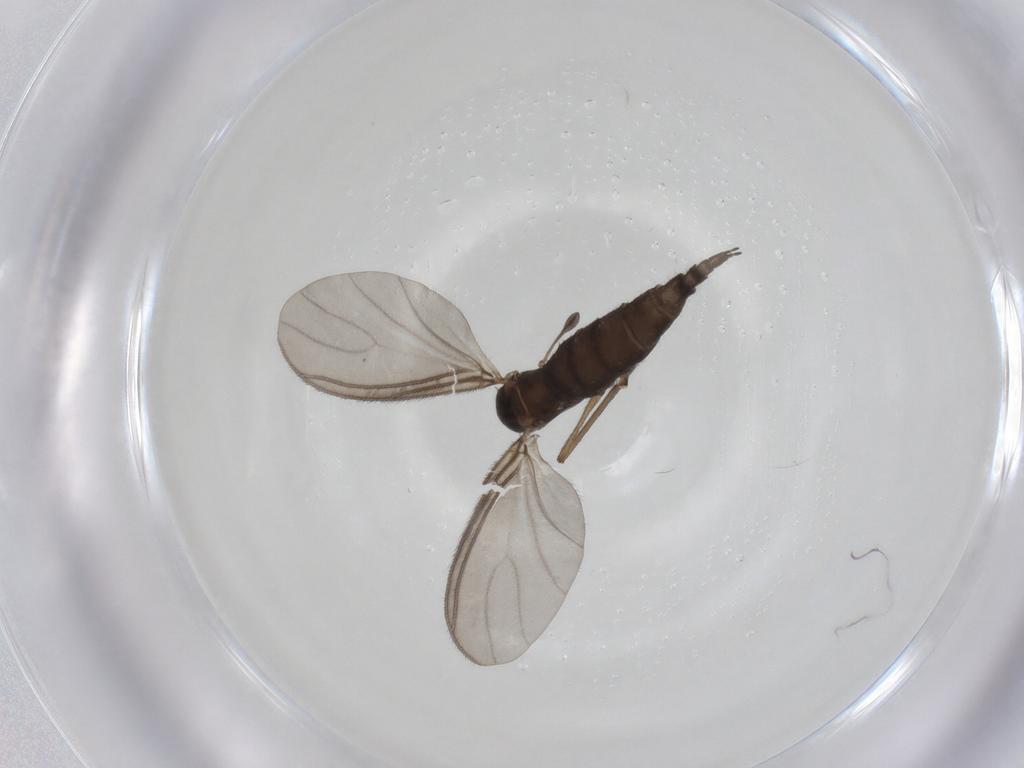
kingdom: Animalia
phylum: Arthropoda
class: Insecta
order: Diptera
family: Sciaridae
